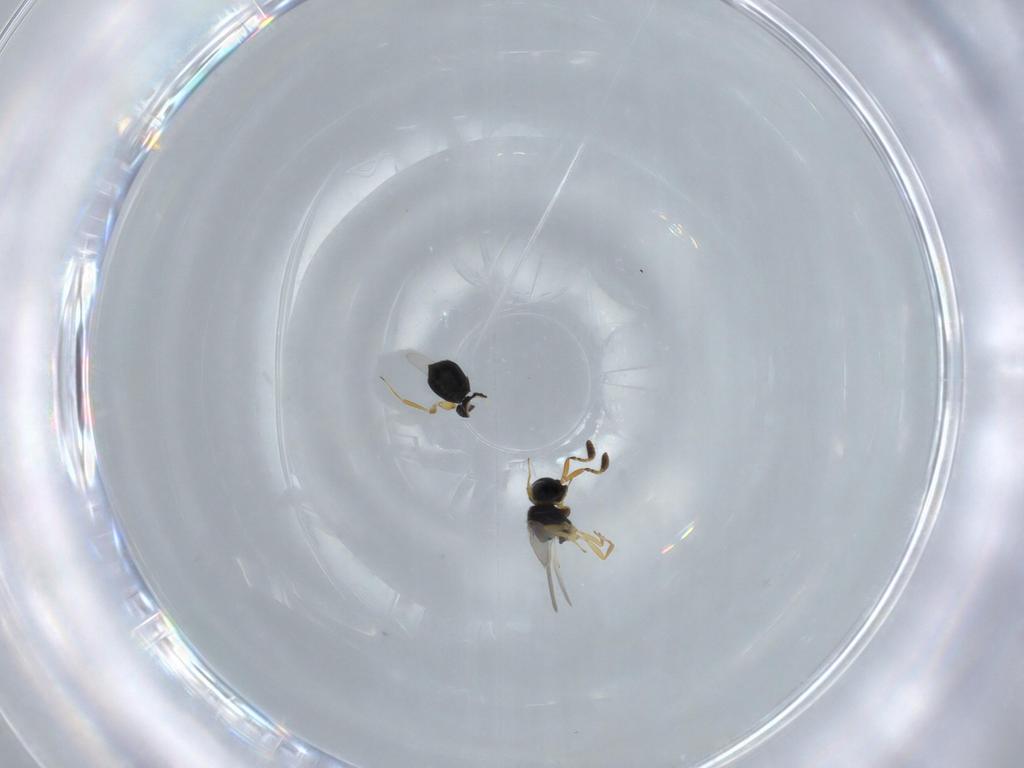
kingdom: Animalia
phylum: Arthropoda
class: Insecta
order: Hymenoptera
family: Scelionidae
